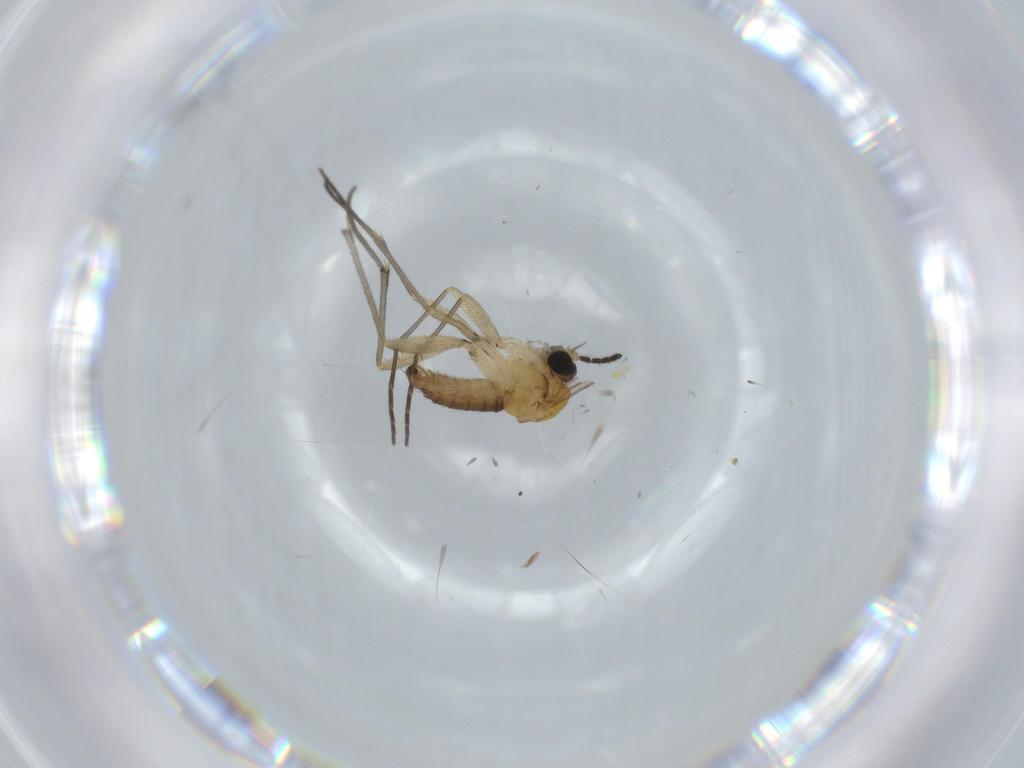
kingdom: Animalia
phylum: Arthropoda
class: Insecta
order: Diptera
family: Sciaridae
